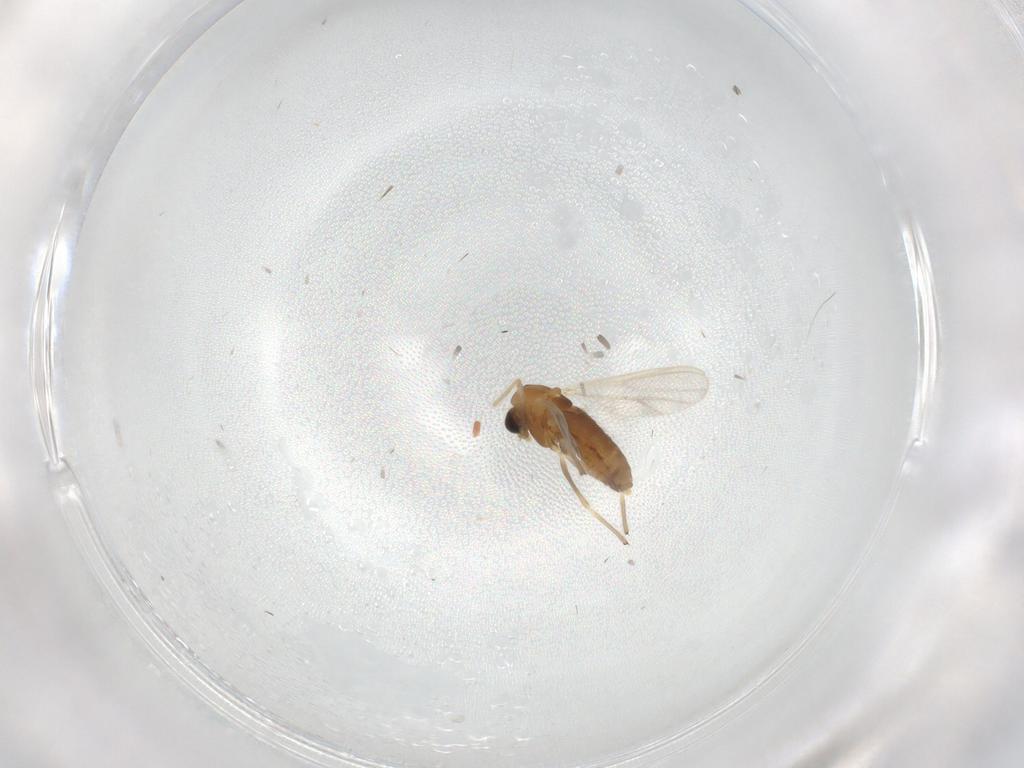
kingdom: Animalia
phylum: Arthropoda
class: Insecta
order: Diptera
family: Chironomidae
